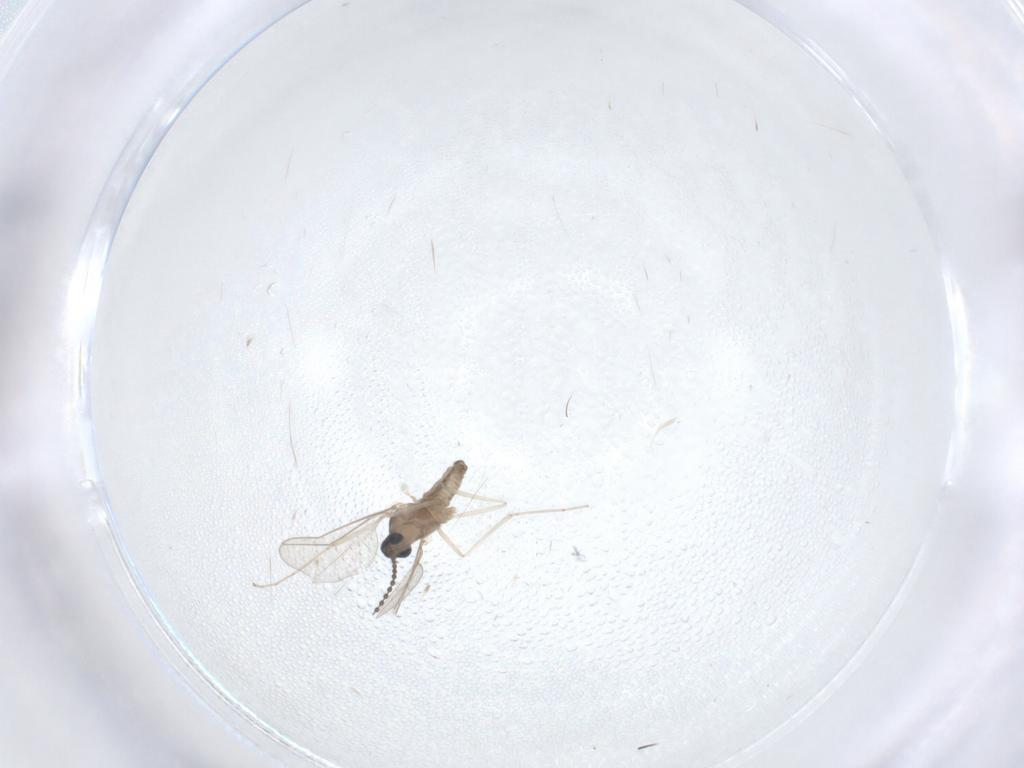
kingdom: Animalia
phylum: Arthropoda
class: Insecta
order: Diptera
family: Cecidomyiidae
